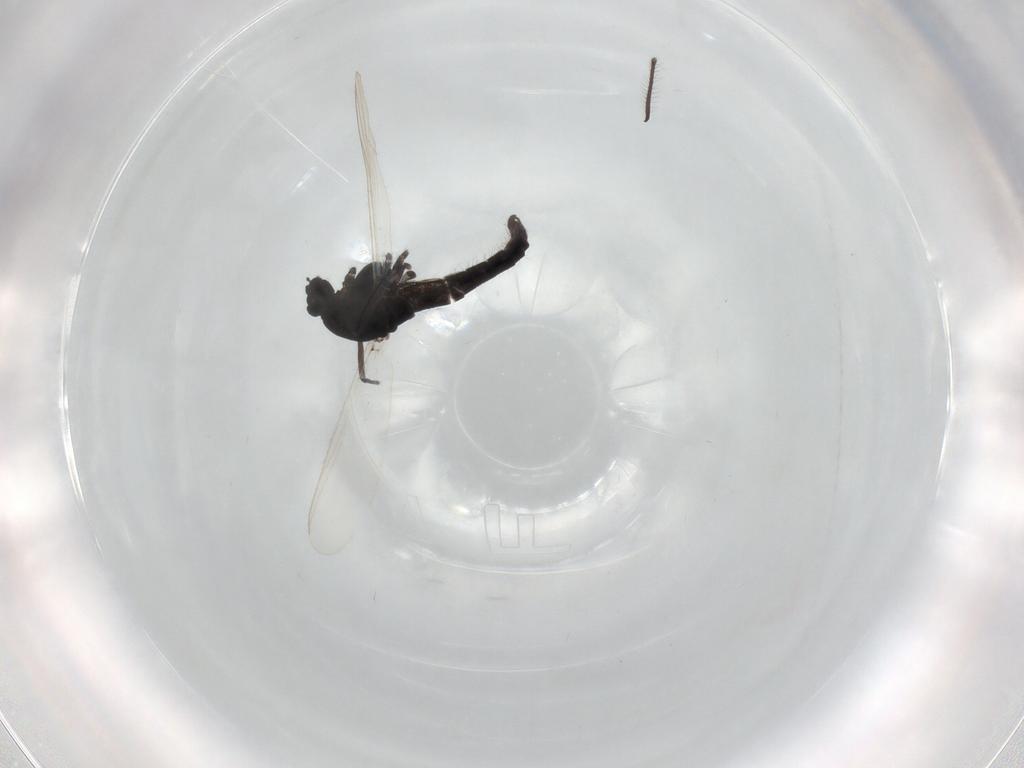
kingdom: Animalia
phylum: Arthropoda
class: Insecta
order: Diptera
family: Chironomidae
